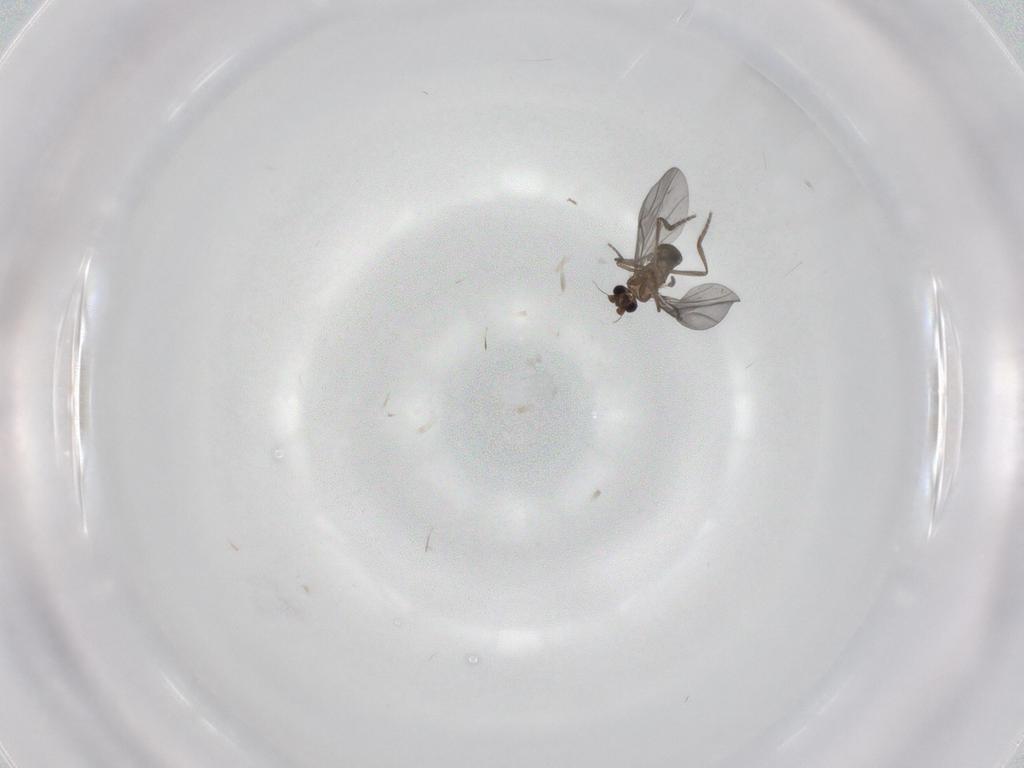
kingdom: Animalia
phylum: Arthropoda
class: Insecta
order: Diptera
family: Phoridae
